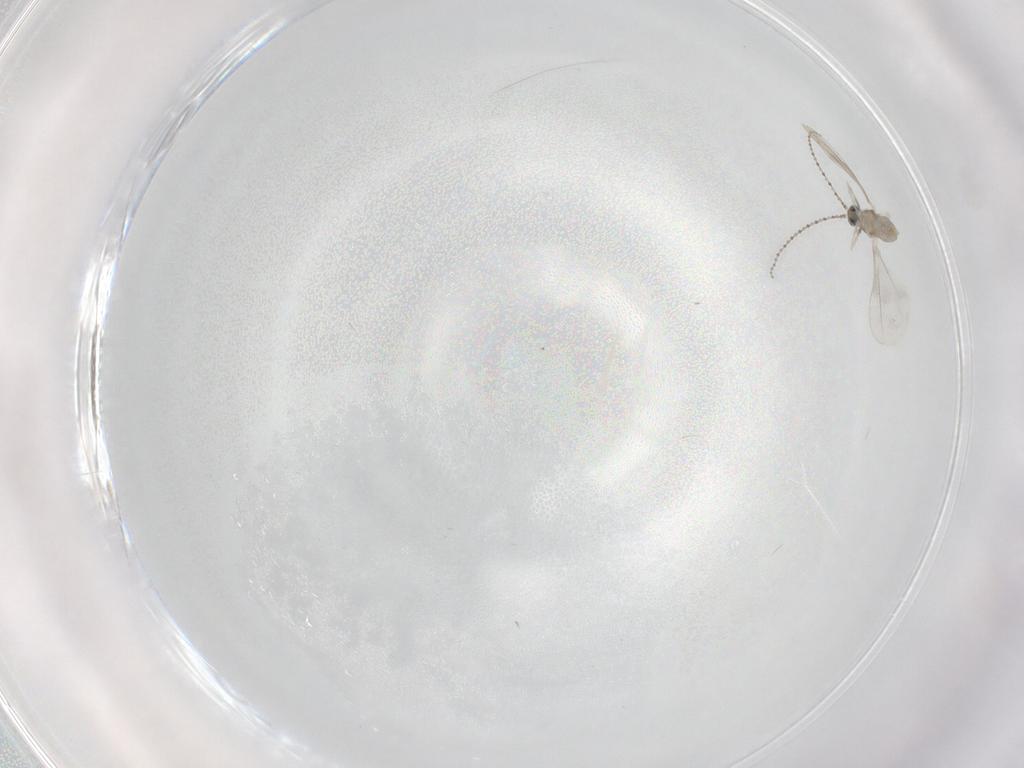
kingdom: Animalia
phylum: Arthropoda
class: Insecta
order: Diptera
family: Cecidomyiidae
